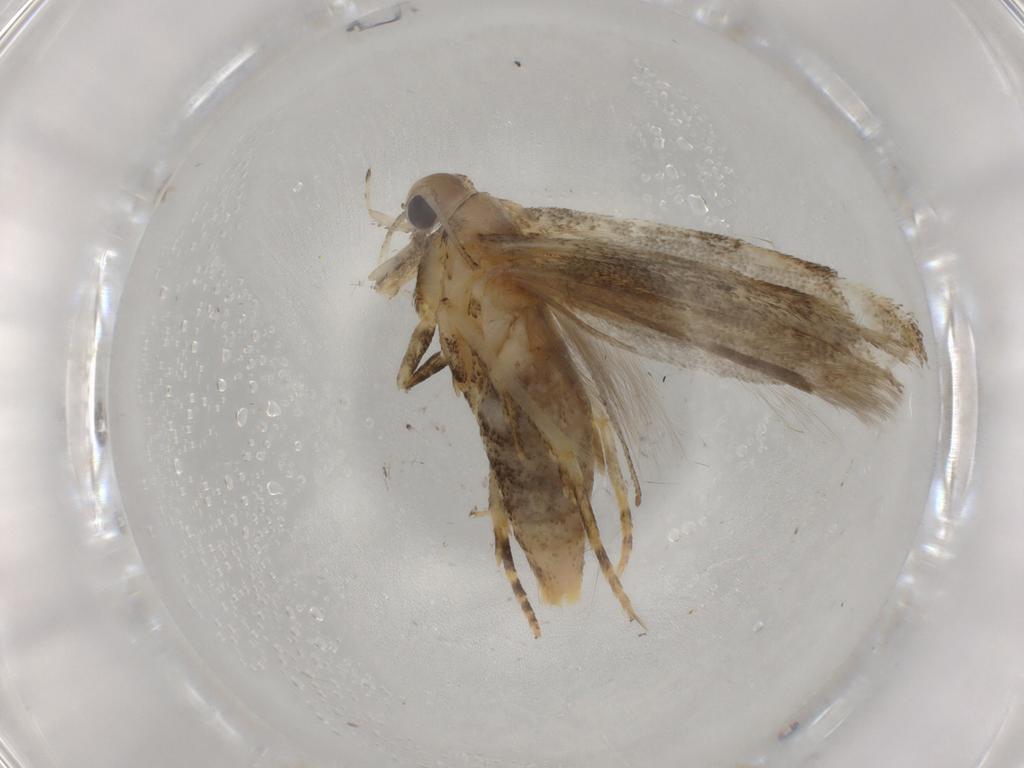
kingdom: Animalia
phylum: Arthropoda
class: Insecta
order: Lepidoptera
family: Gelechiidae
